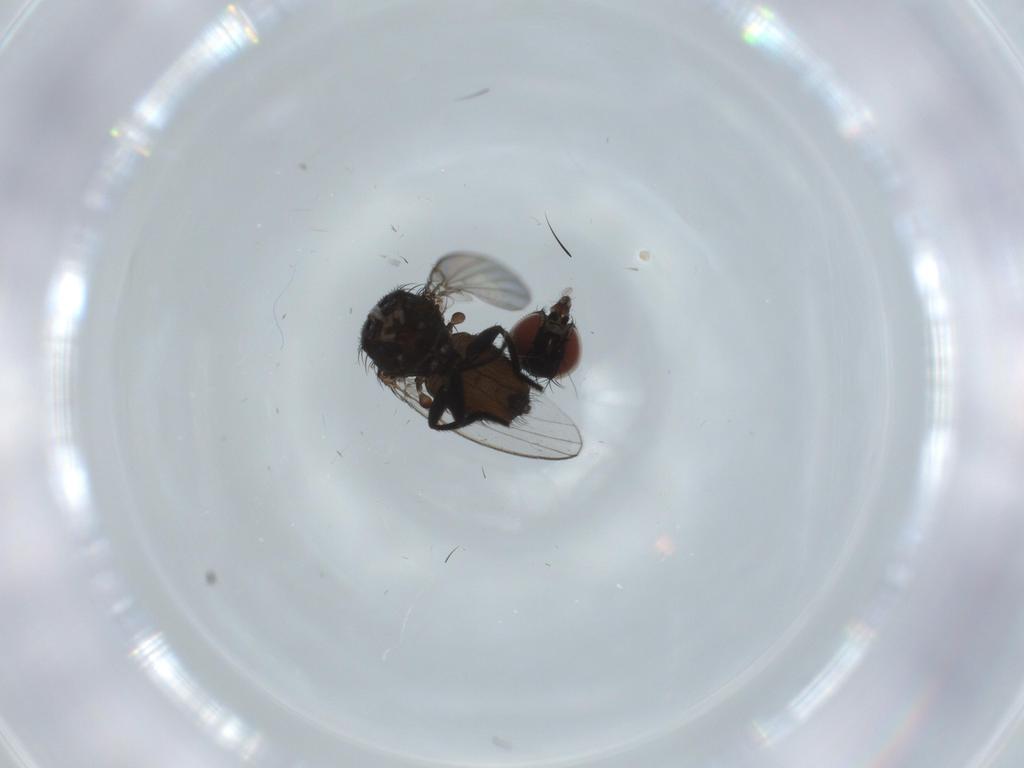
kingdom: Animalia
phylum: Arthropoda
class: Insecta
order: Diptera
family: Milichiidae
